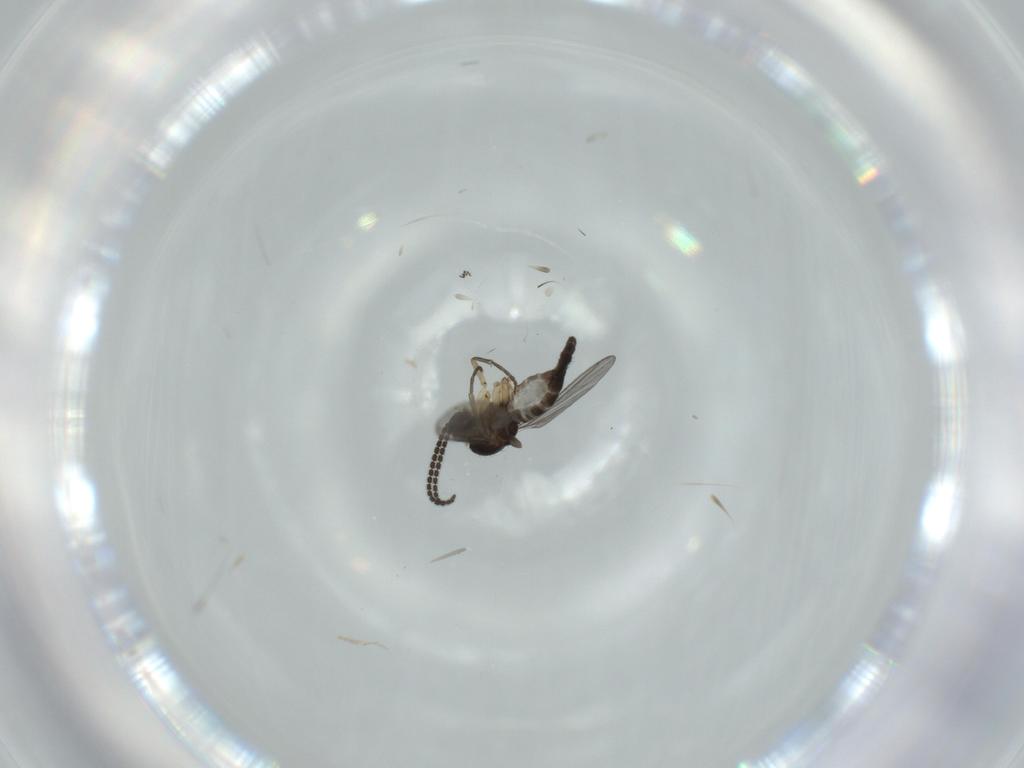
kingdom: Animalia
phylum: Arthropoda
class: Insecta
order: Diptera
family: Sciaridae
